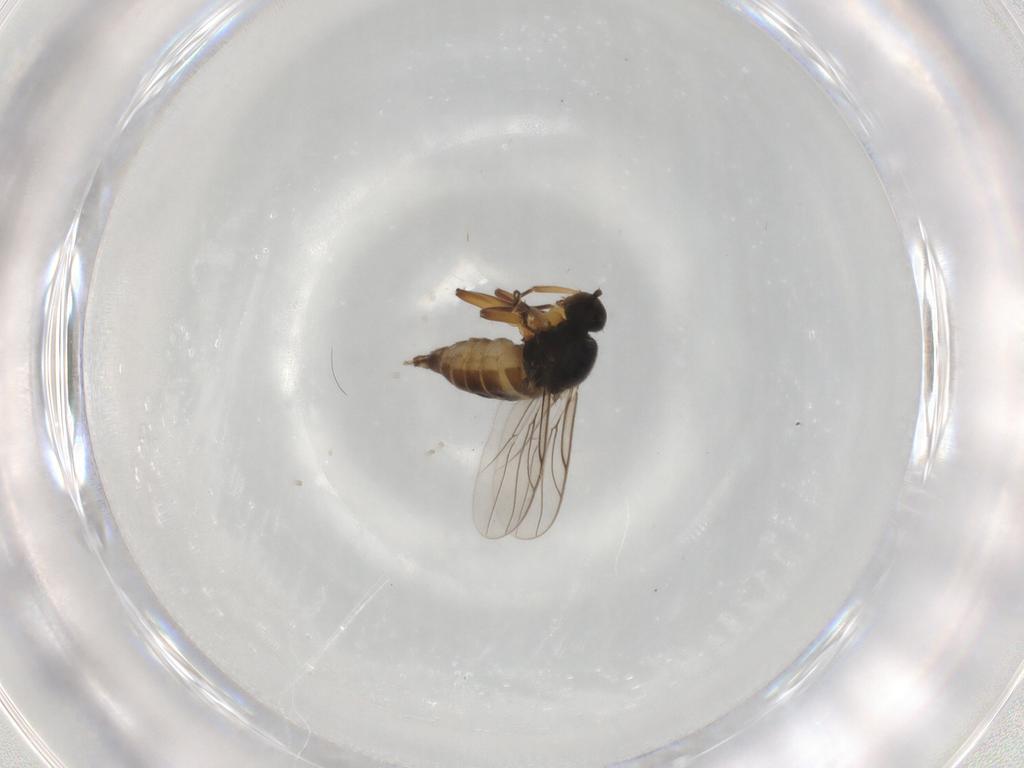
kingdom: Animalia
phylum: Arthropoda
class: Insecta
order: Diptera
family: Hybotidae
